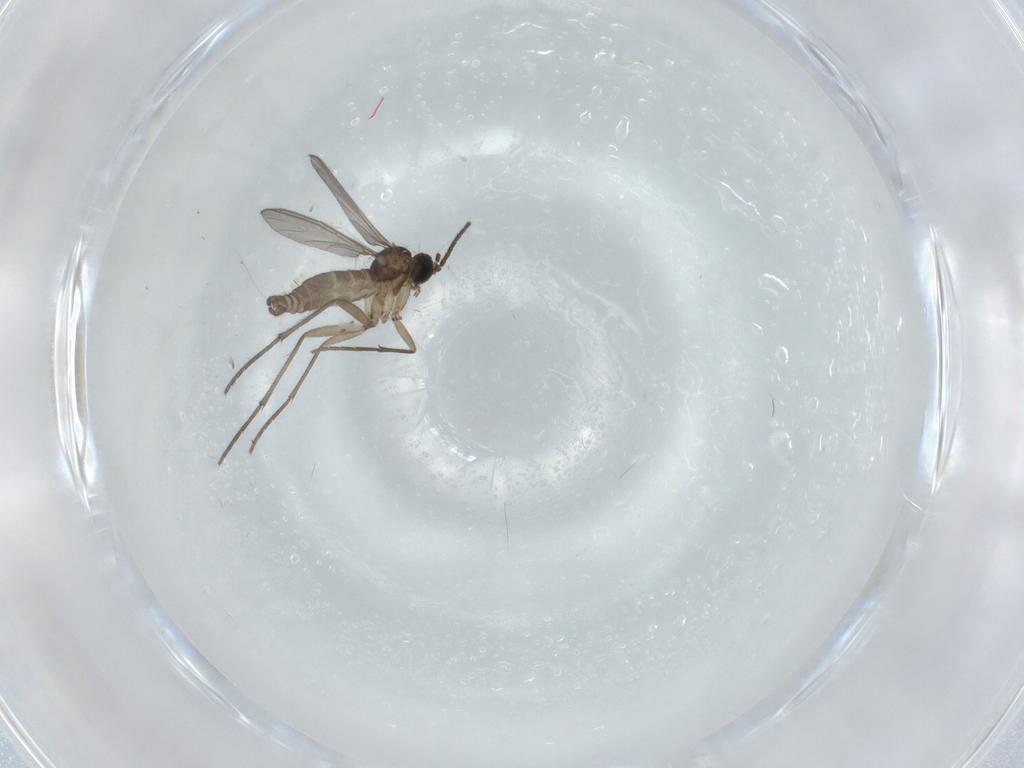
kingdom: Animalia
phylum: Arthropoda
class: Insecta
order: Diptera
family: Sciaridae
